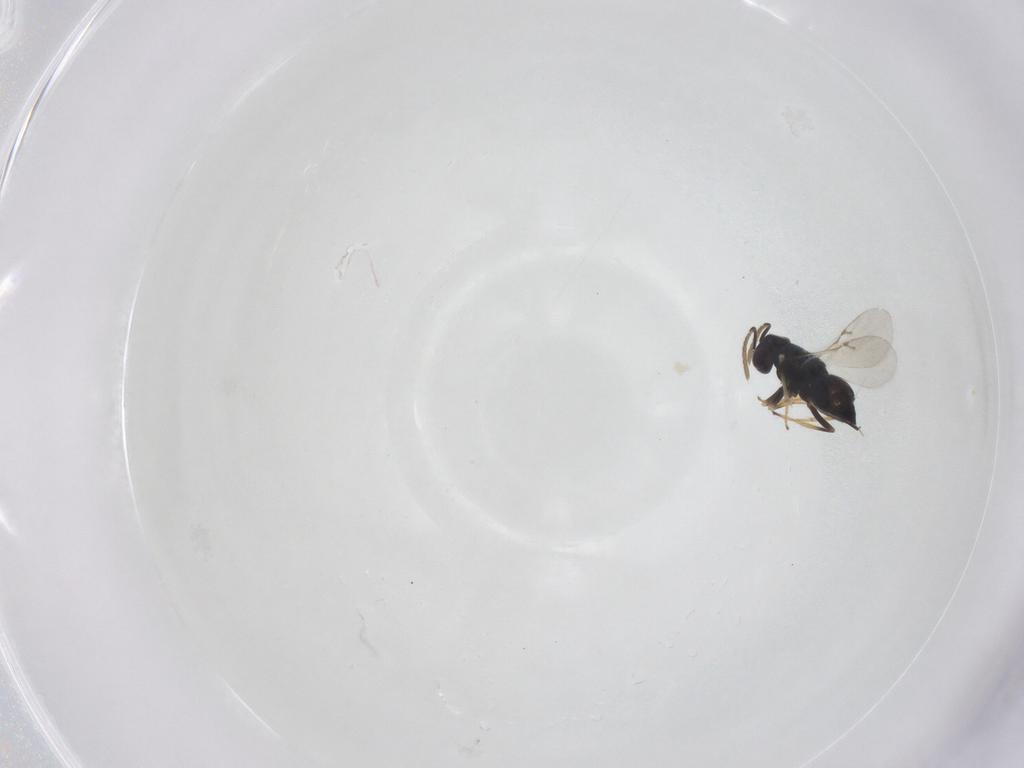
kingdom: Animalia
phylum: Arthropoda
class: Insecta
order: Hymenoptera
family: Encyrtidae
